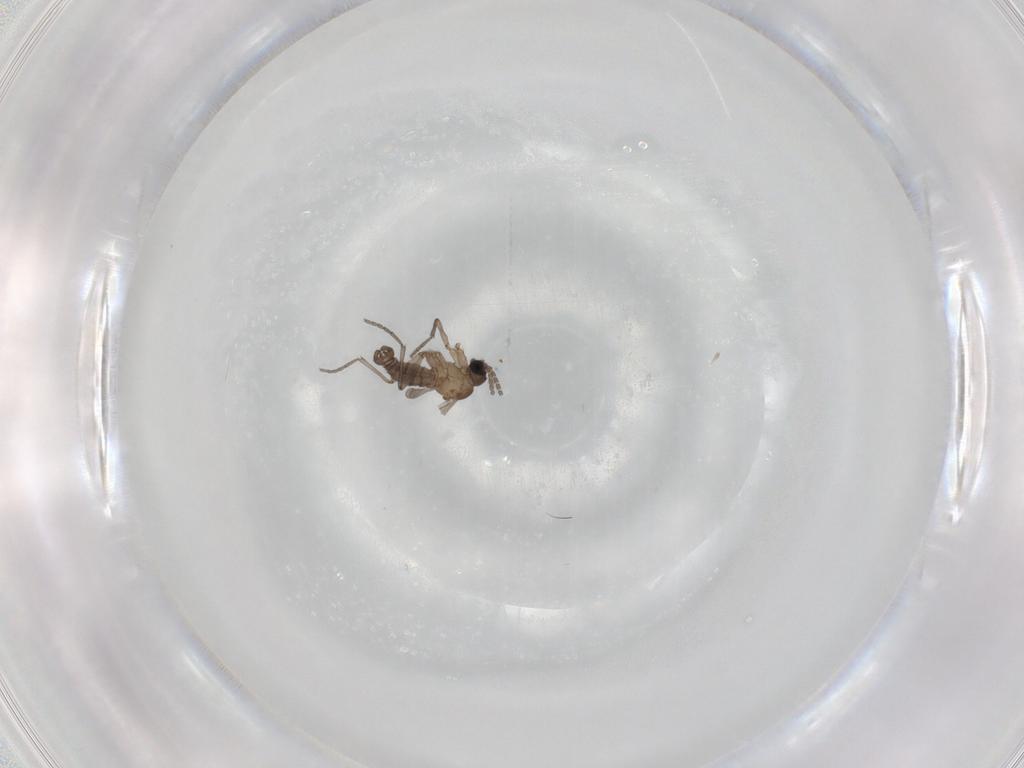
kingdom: Animalia
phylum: Arthropoda
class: Insecta
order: Diptera
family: Sciaridae
